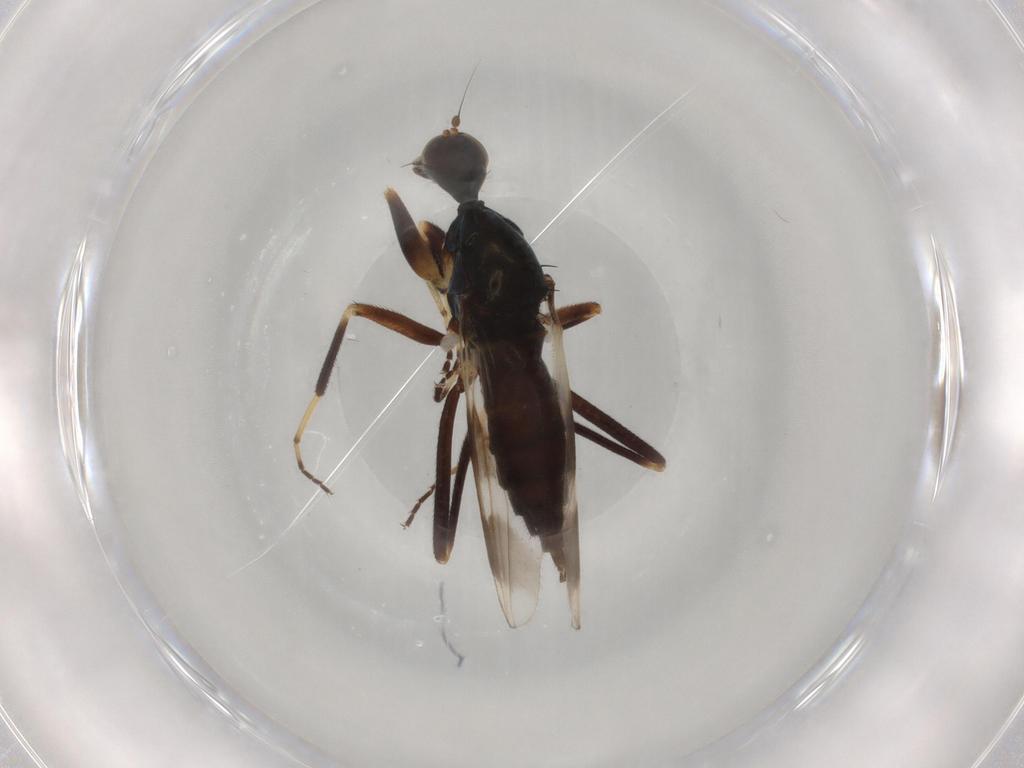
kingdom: Animalia
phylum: Arthropoda
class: Insecta
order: Diptera
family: Hybotidae
